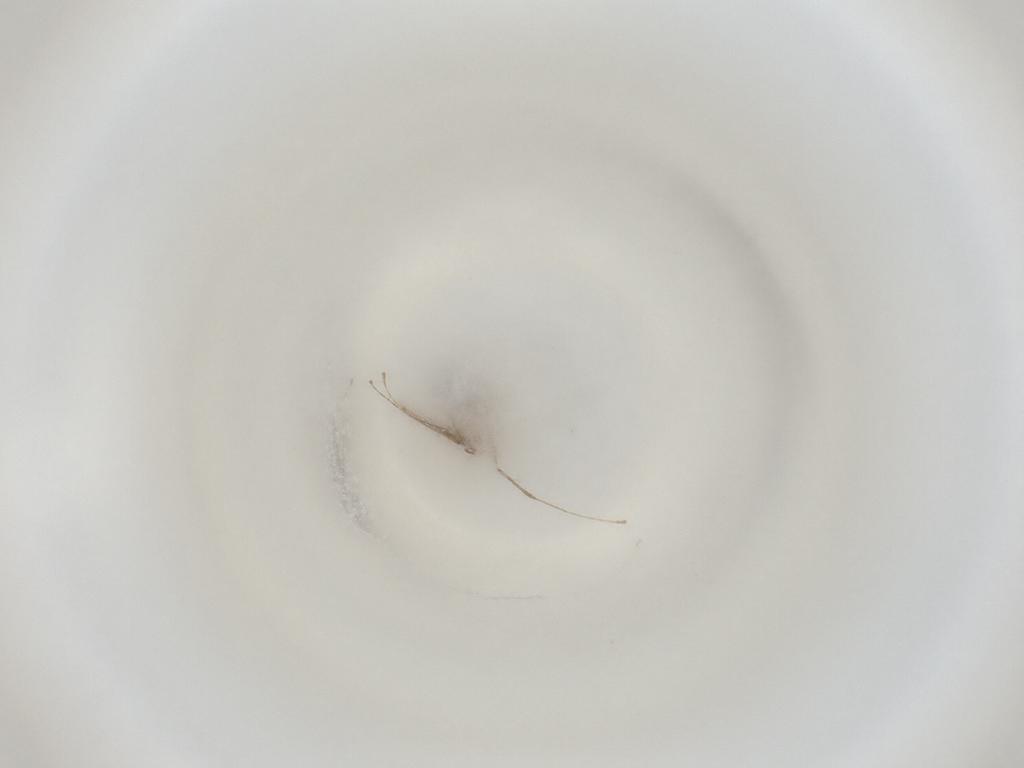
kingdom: Animalia
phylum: Arthropoda
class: Insecta
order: Diptera
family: Cecidomyiidae
